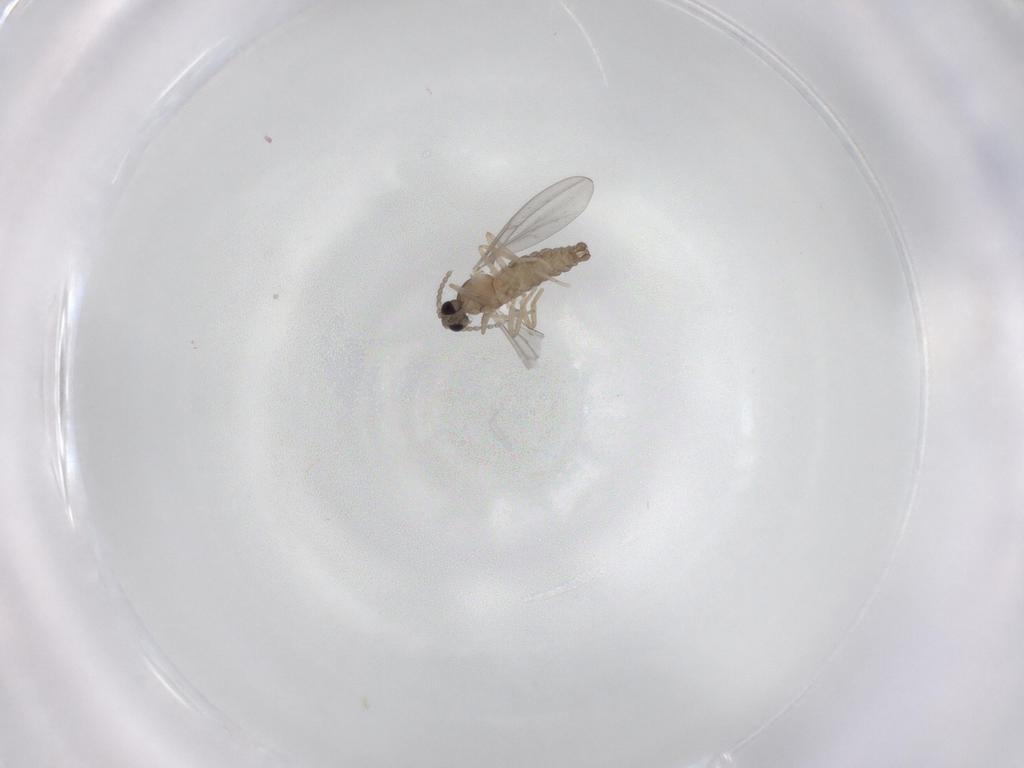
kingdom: Animalia
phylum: Arthropoda
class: Insecta
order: Diptera
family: Cecidomyiidae
